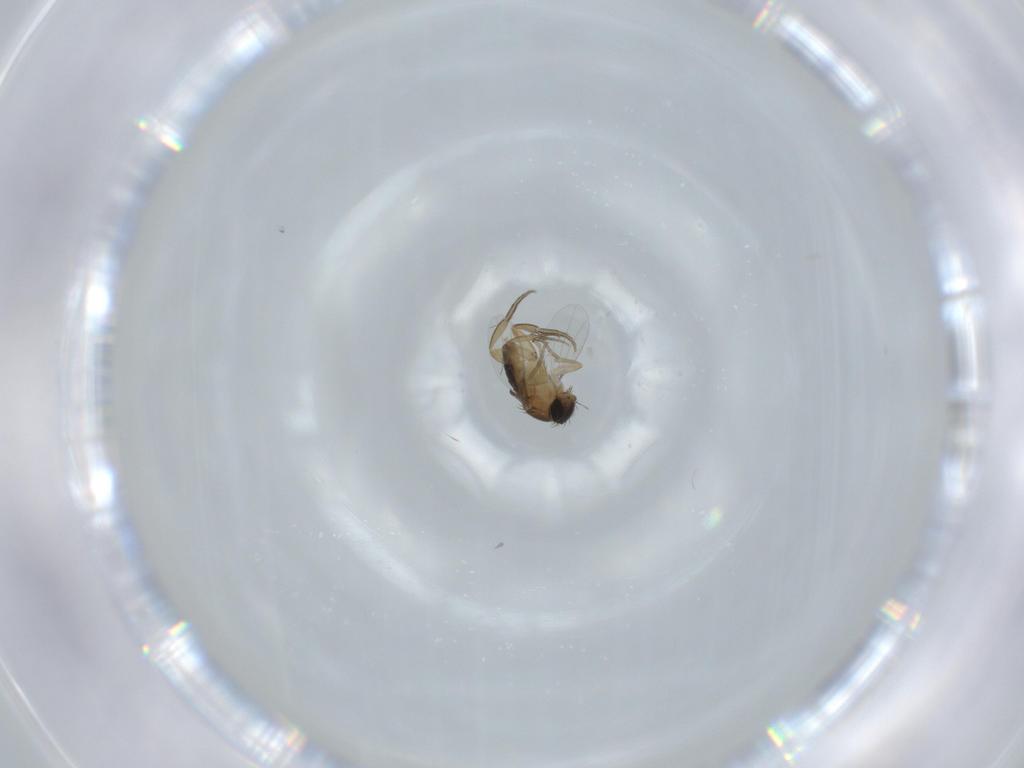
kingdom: Animalia
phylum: Arthropoda
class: Insecta
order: Diptera
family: Phoridae
